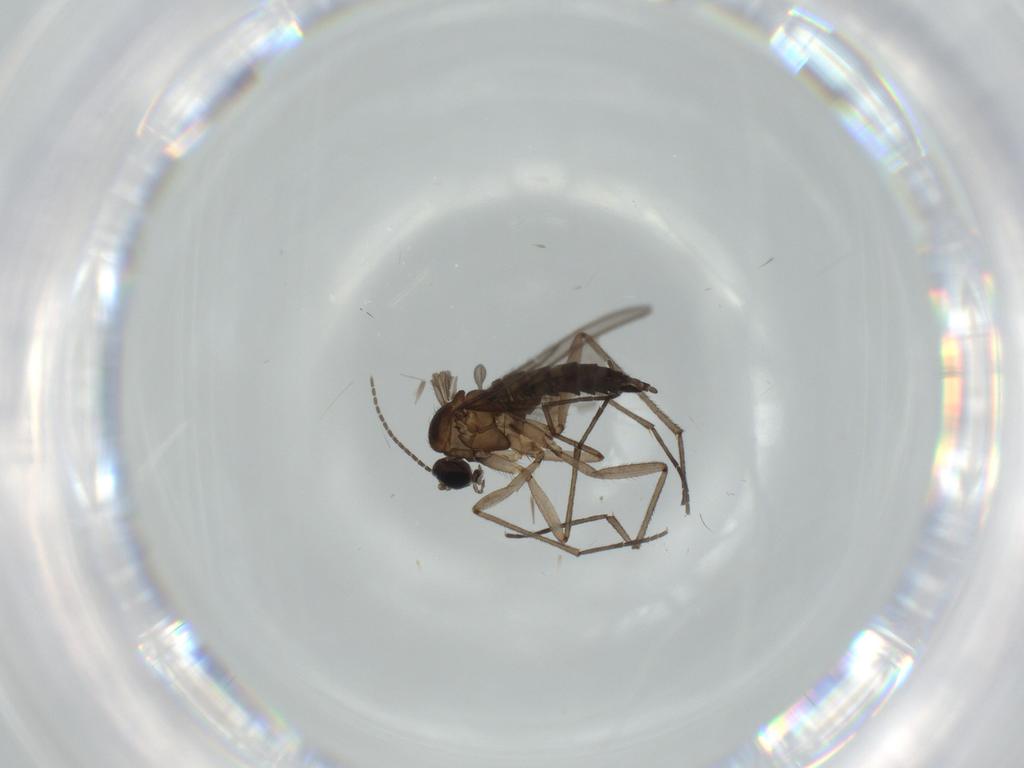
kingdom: Animalia
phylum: Arthropoda
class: Insecta
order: Diptera
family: Sciaridae
